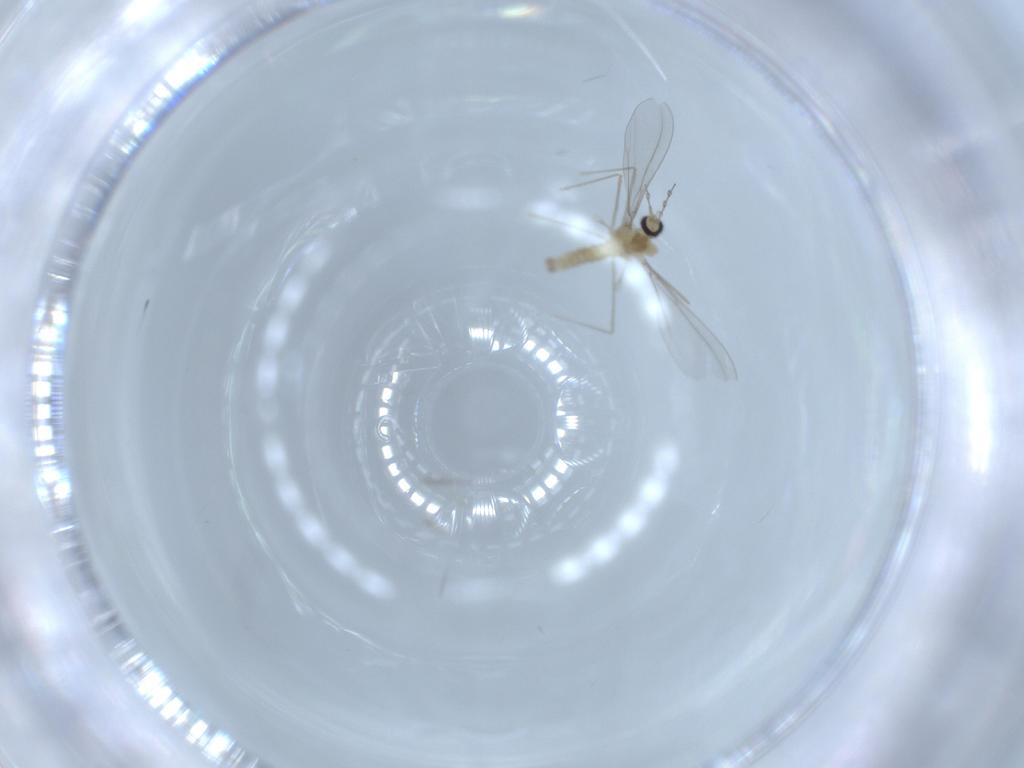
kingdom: Animalia
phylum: Arthropoda
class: Insecta
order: Diptera
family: Cecidomyiidae
